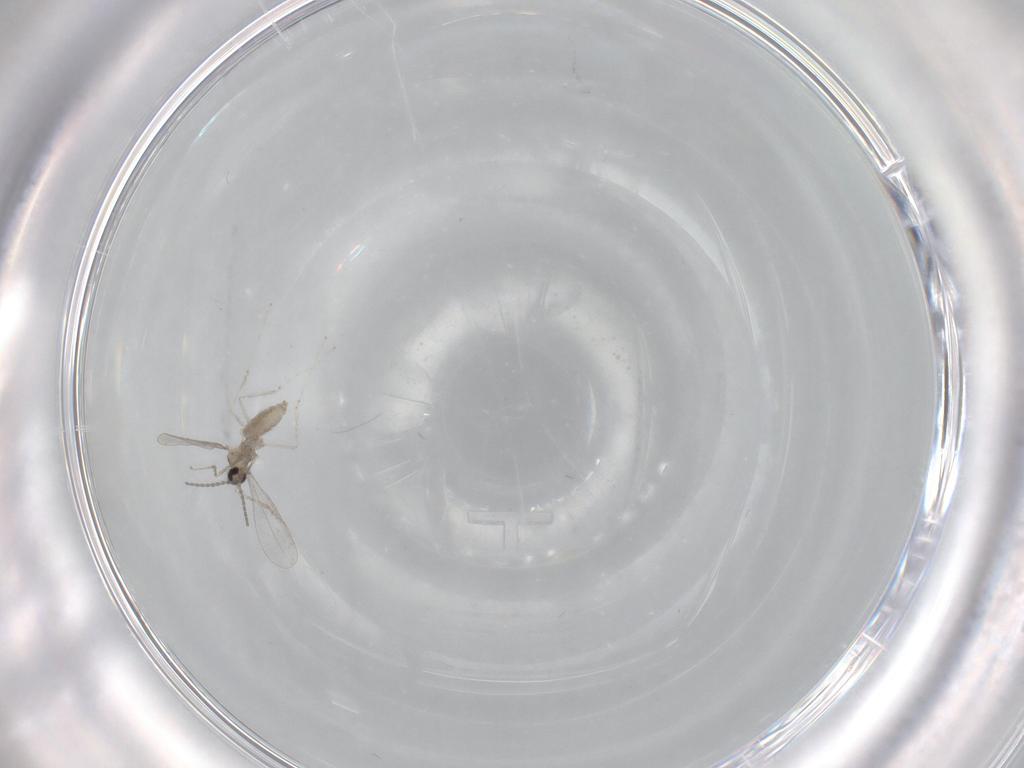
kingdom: Animalia
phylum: Arthropoda
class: Insecta
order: Diptera
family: Cecidomyiidae
